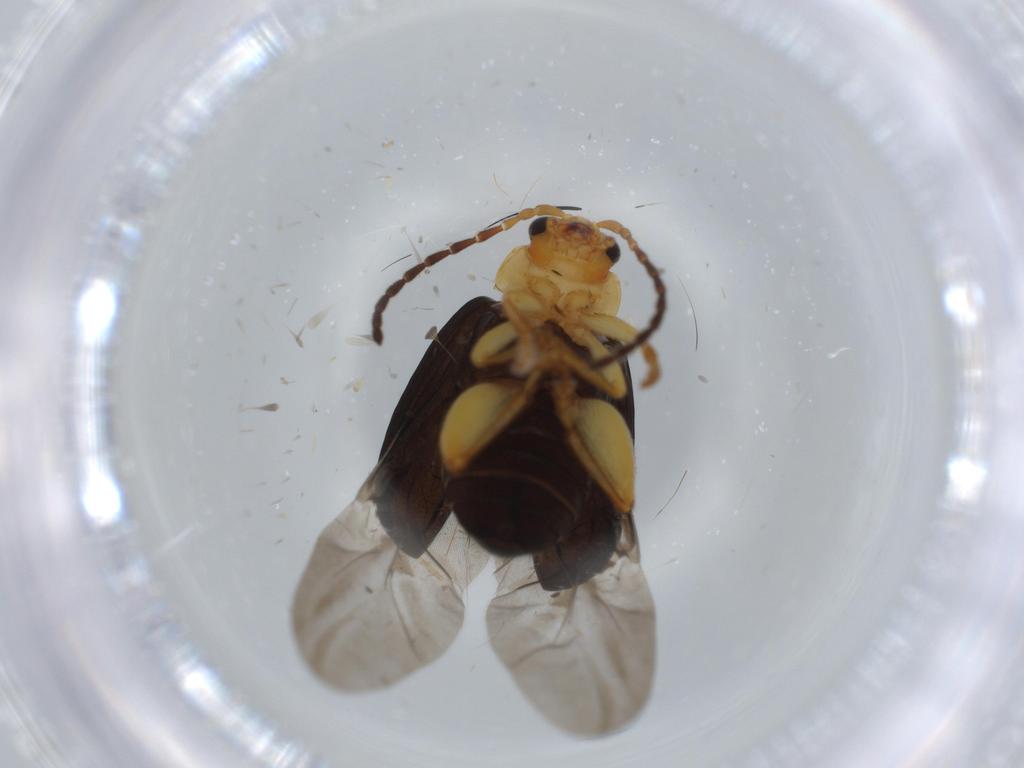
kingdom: Animalia
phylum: Arthropoda
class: Insecta
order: Coleoptera
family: Chrysomelidae
